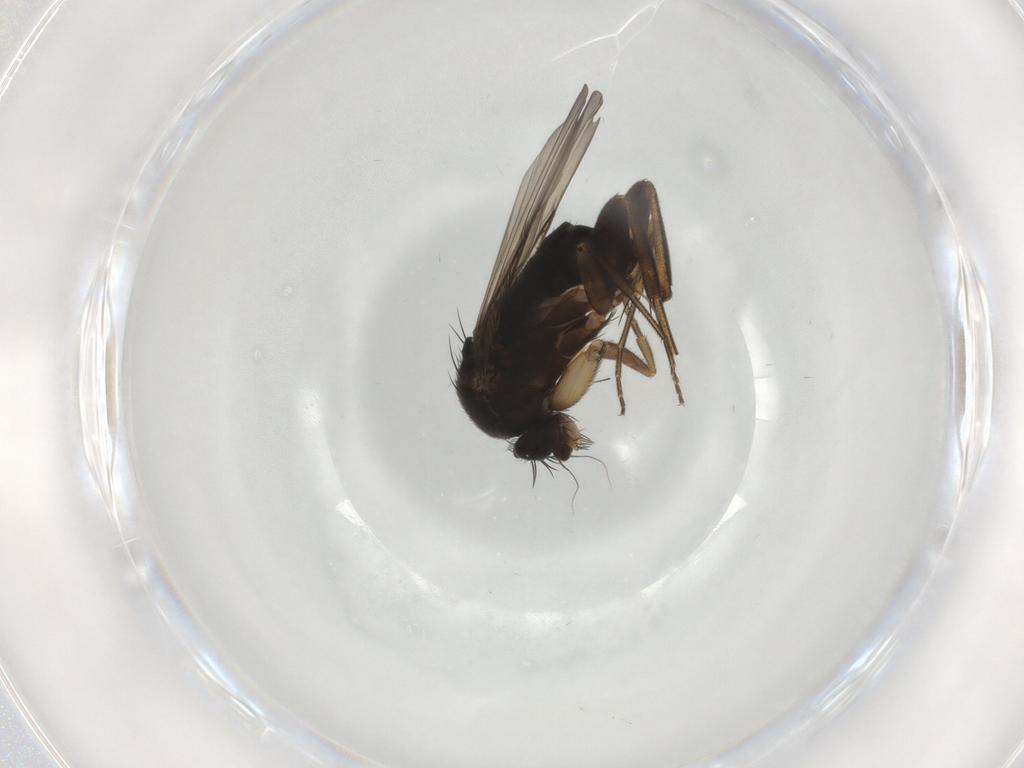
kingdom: Animalia
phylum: Arthropoda
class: Insecta
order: Diptera
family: Phoridae
